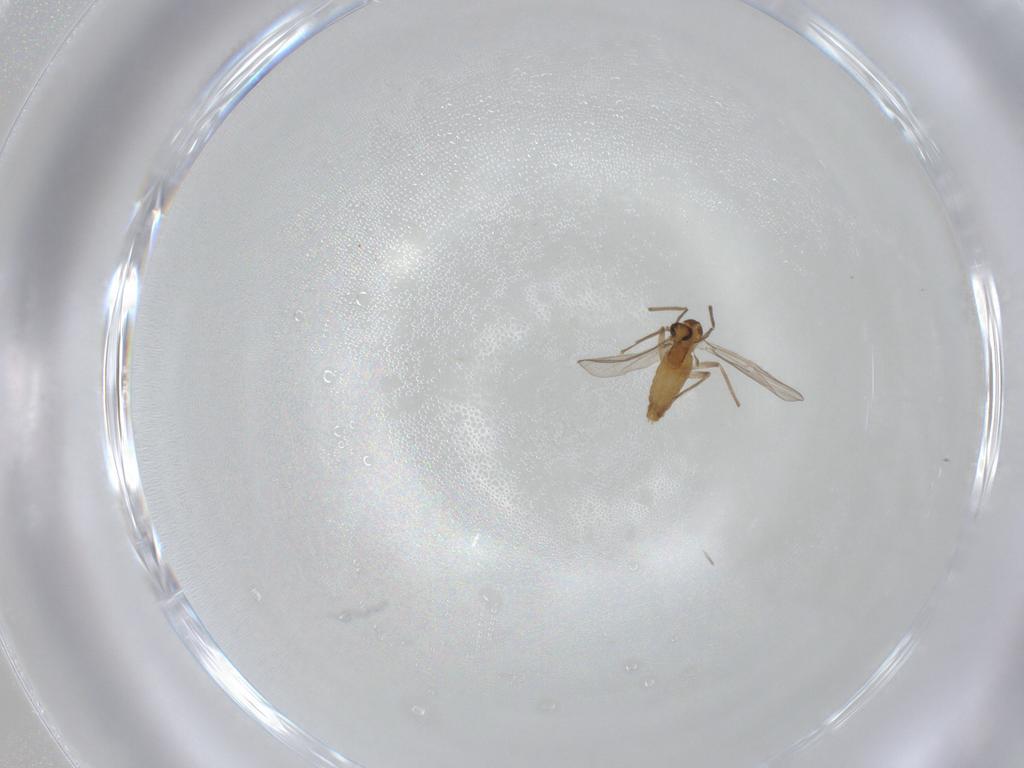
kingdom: Animalia
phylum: Arthropoda
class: Insecta
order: Diptera
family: Chironomidae
